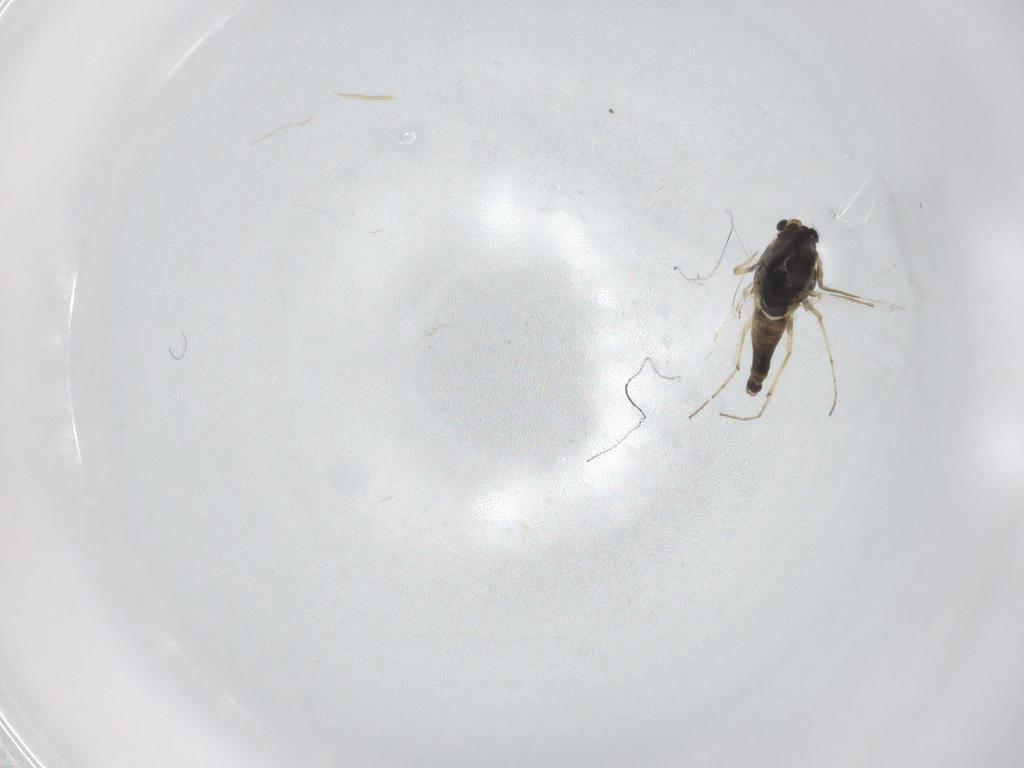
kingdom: Animalia
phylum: Arthropoda
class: Insecta
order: Diptera
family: Chironomidae
